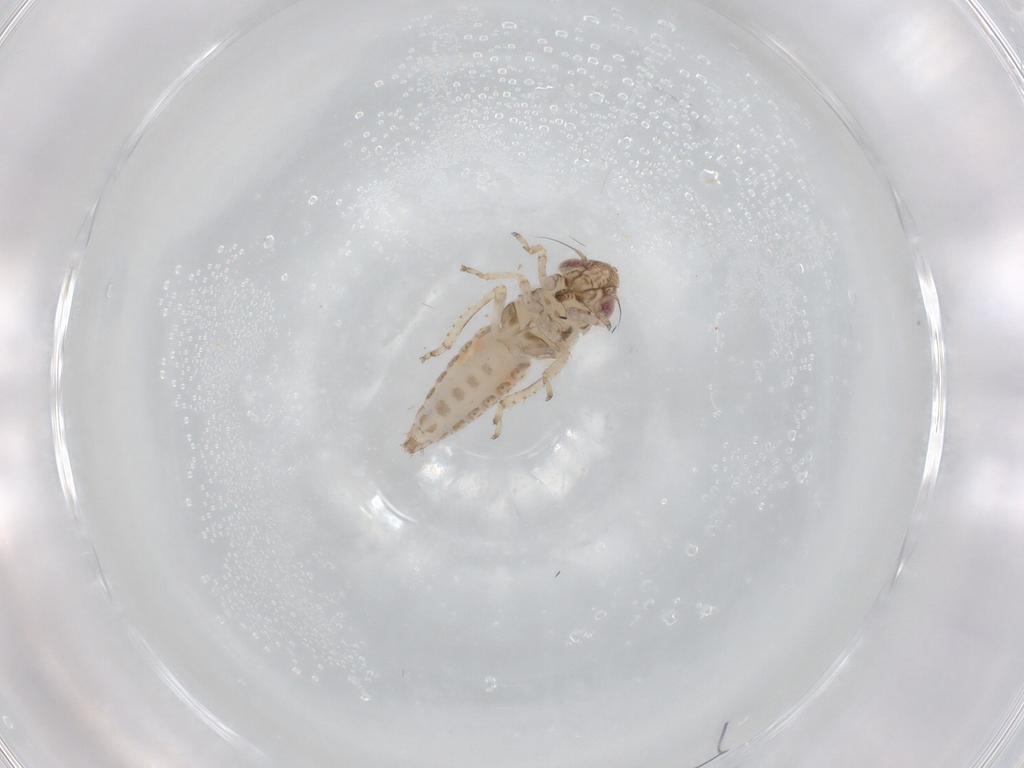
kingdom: Animalia
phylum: Arthropoda
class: Insecta
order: Hemiptera
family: Cicadellidae
